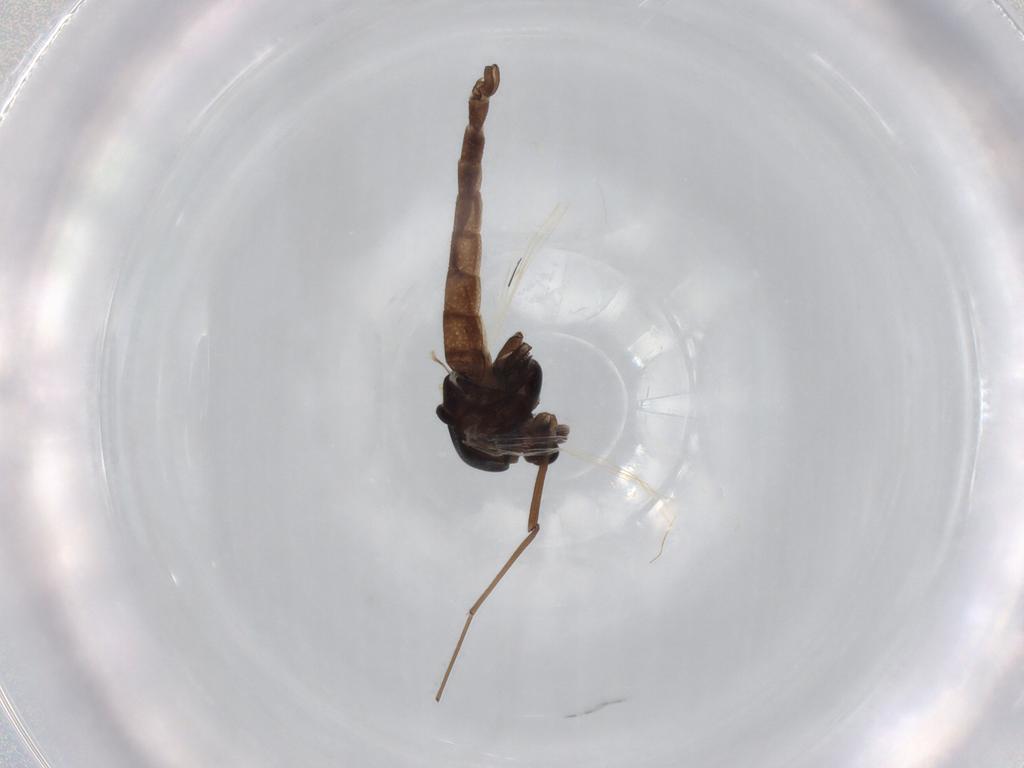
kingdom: Animalia
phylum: Arthropoda
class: Insecta
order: Diptera
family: Chironomidae
